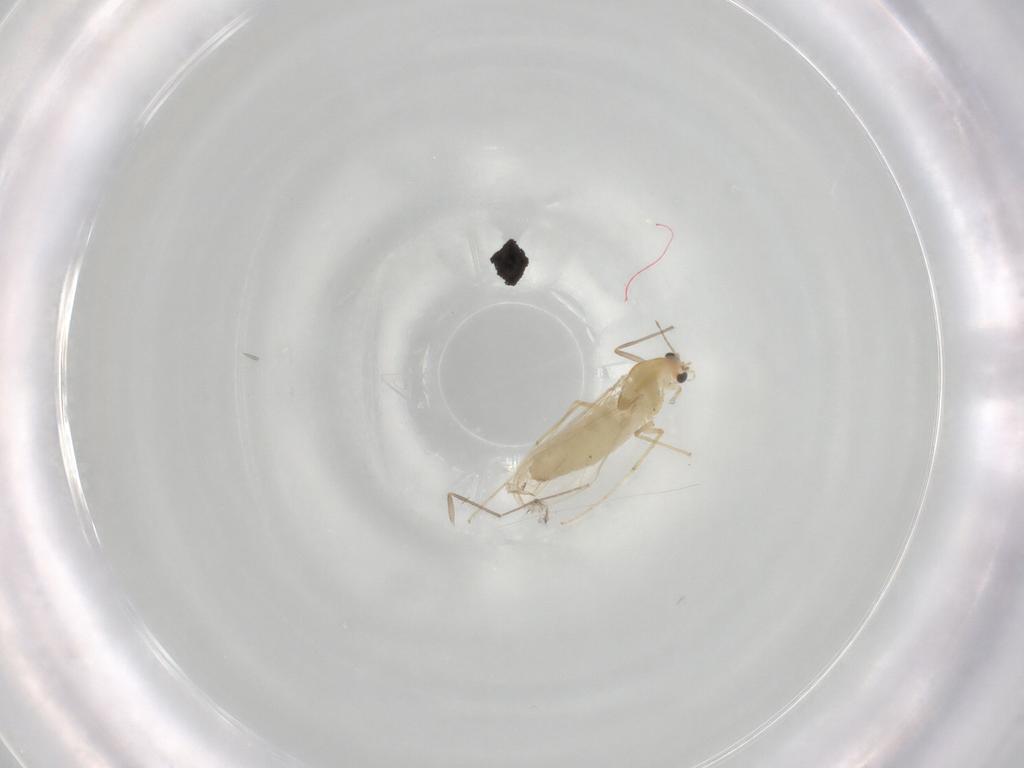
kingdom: Animalia
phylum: Arthropoda
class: Insecta
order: Diptera
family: Chironomidae
